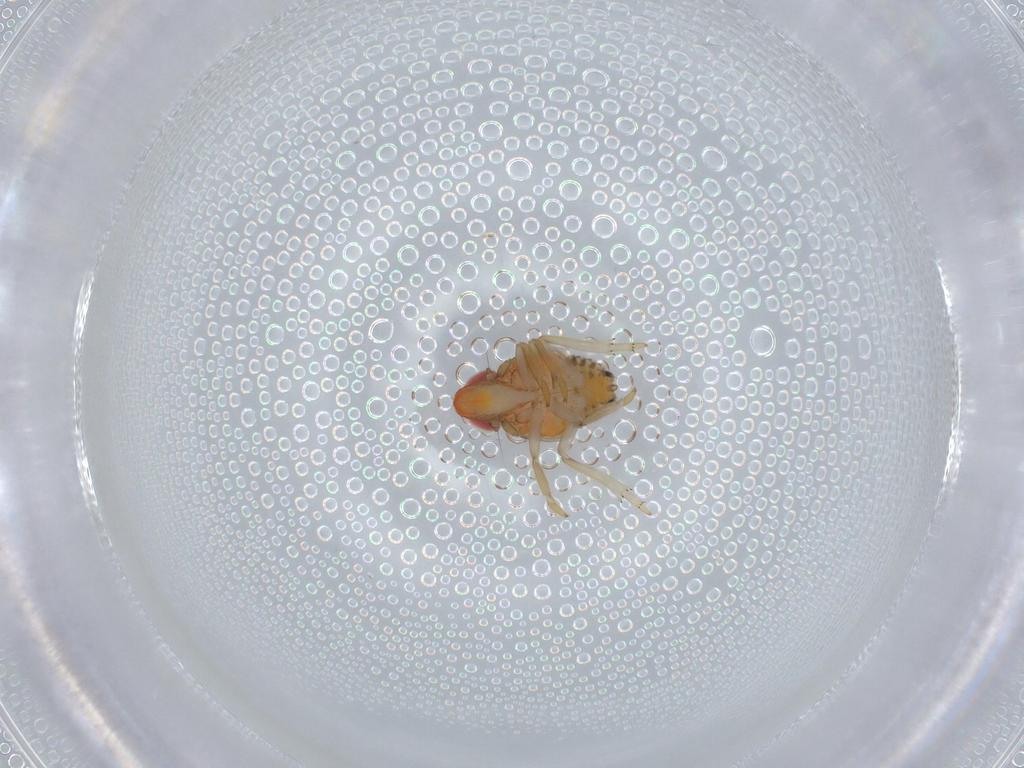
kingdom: Animalia
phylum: Arthropoda
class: Insecta
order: Hemiptera
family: Fulgoroidea_incertae_sedis
